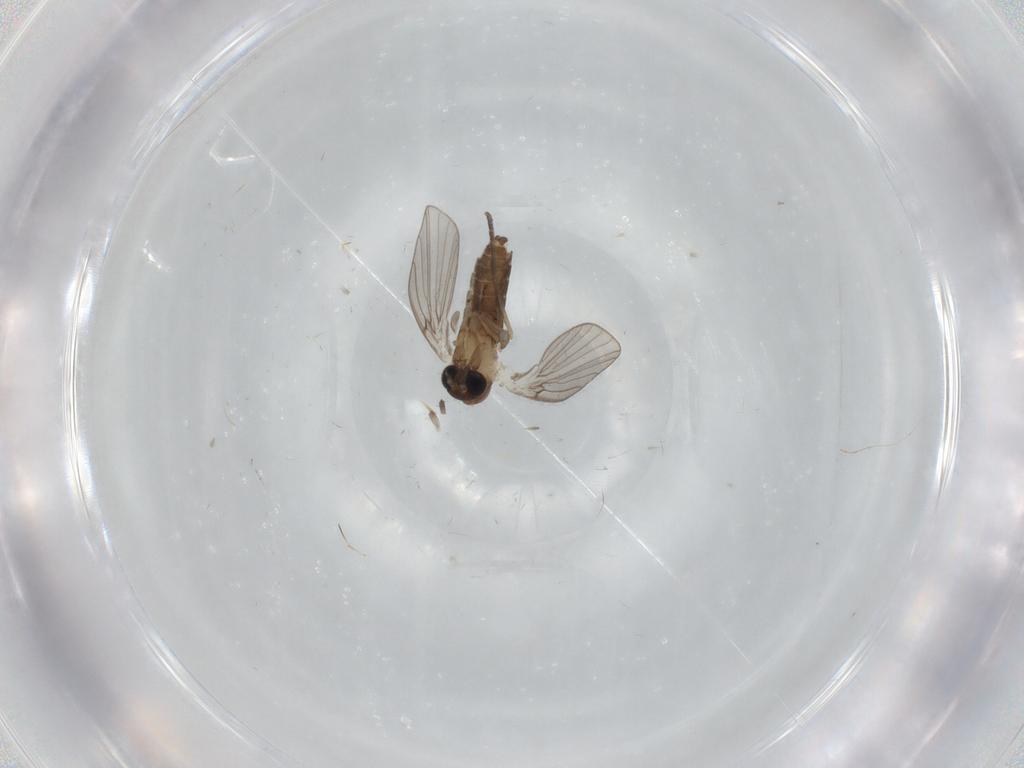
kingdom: Animalia
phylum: Arthropoda
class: Insecta
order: Diptera
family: Psychodidae
